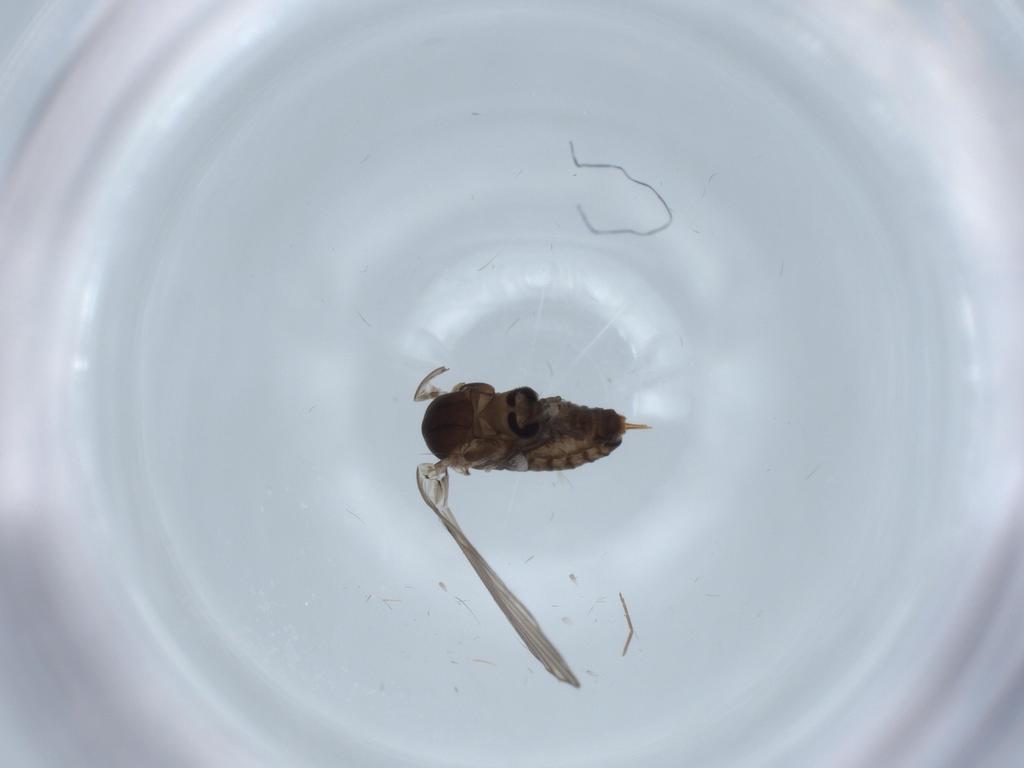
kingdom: Animalia
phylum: Arthropoda
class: Insecta
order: Diptera
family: Psychodidae
